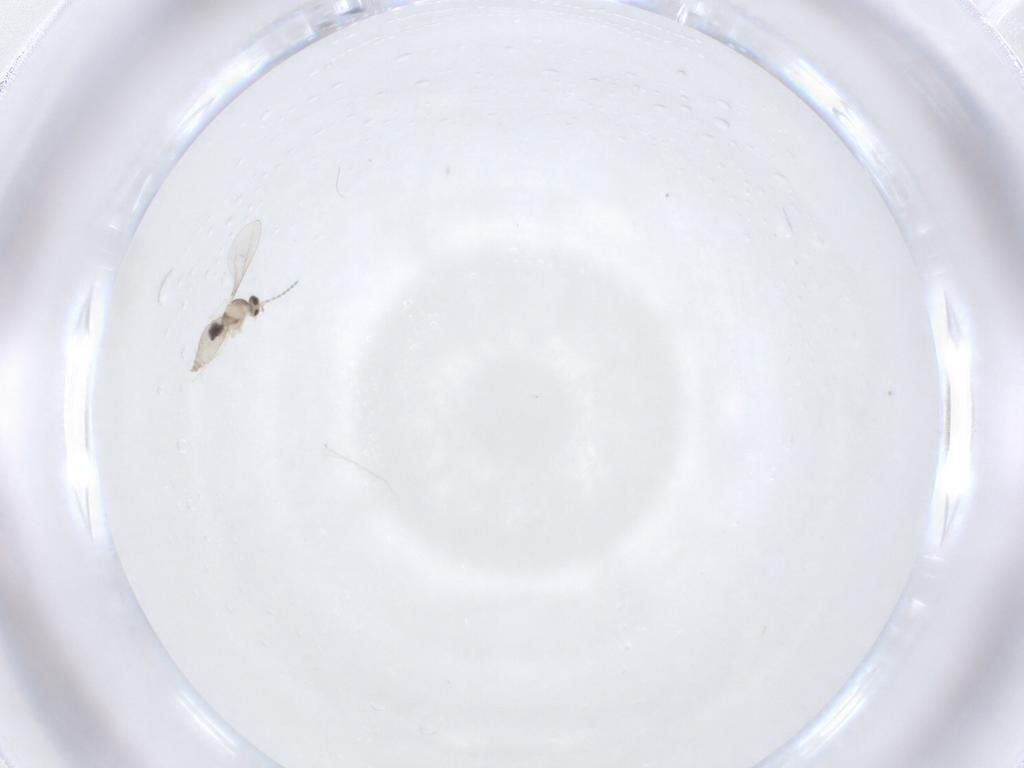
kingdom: Animalia
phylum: Arthropoda
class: Insecta
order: Diptera
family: Cecidomyiidae
